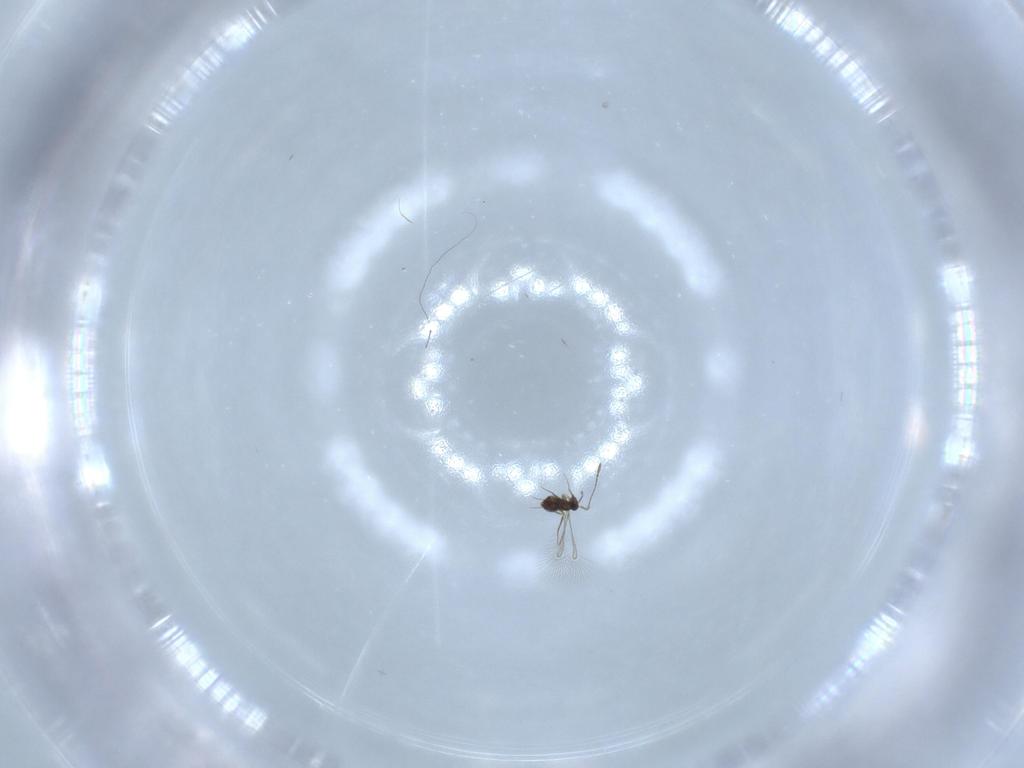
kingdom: Animalia
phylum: Arthropoda
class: Insecta
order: Hymenoptera
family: Mymaridae
